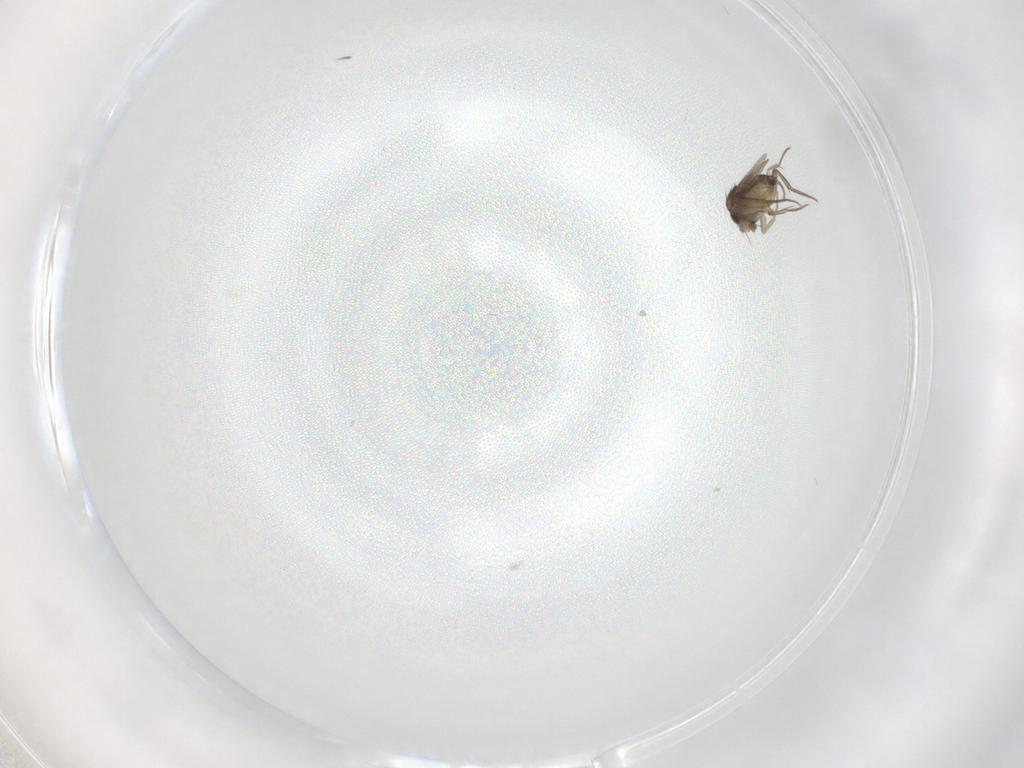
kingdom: Animalia
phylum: Arthropoda
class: Insecta
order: Diptera
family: Phoridae
